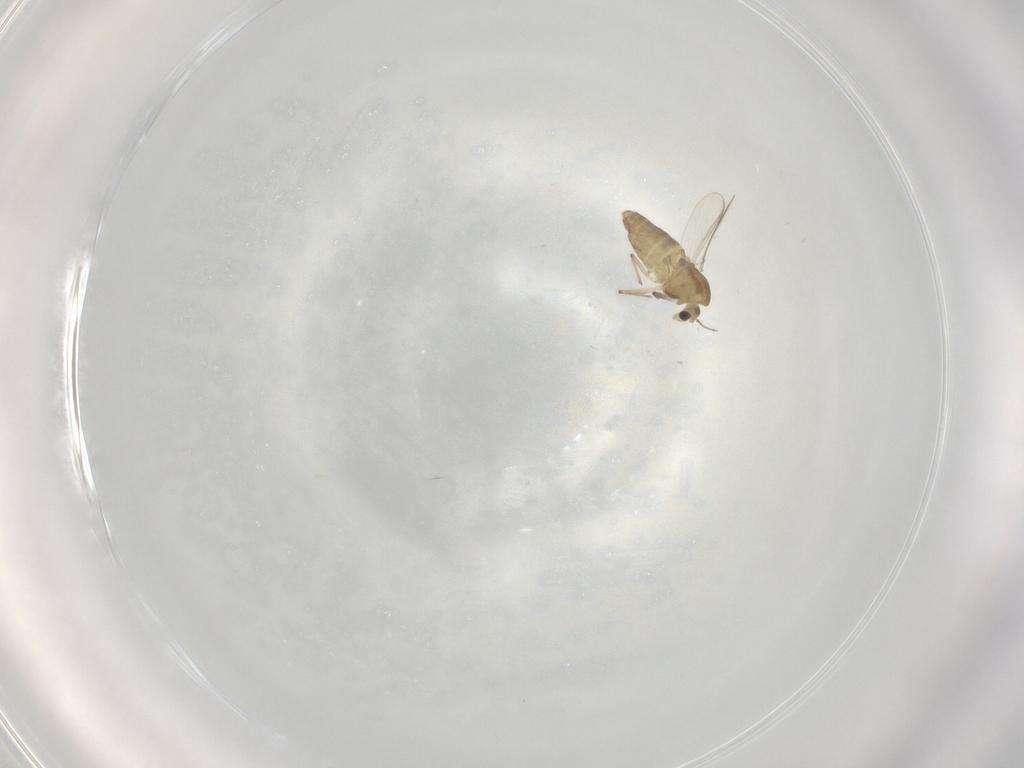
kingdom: Animalia
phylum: Arthropoda
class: Insecta
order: Diptera
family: Chironomidae
